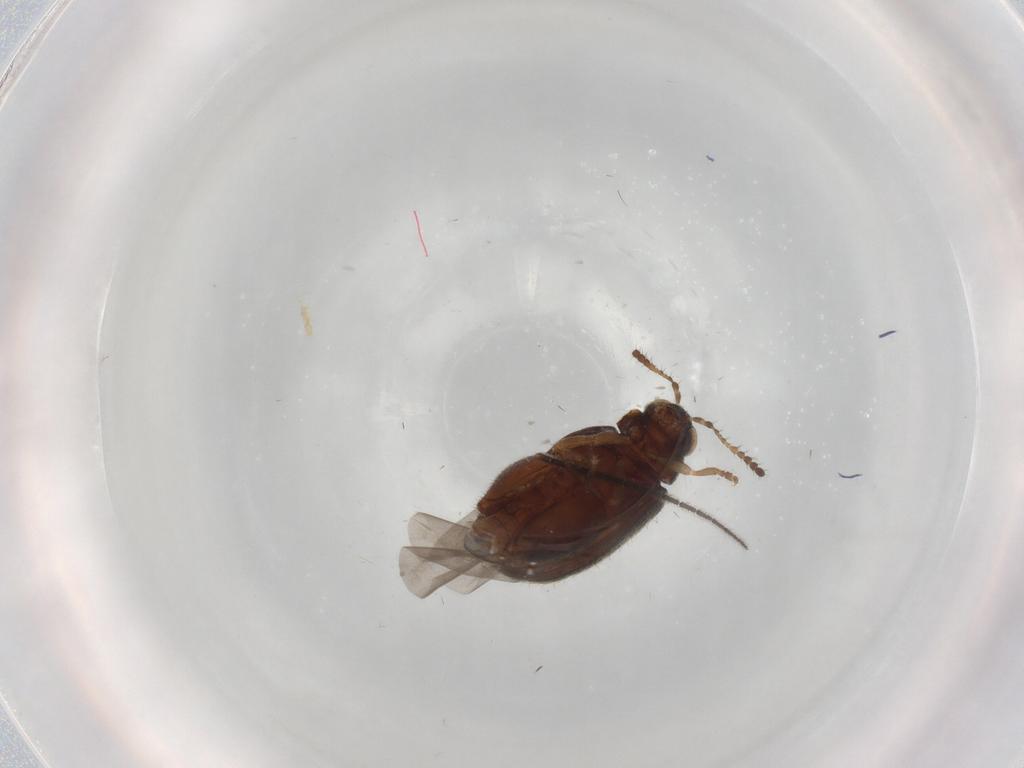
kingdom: Animalia
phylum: Arthropoda
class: Insecta
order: Coleoptera
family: Chrysomelidae
